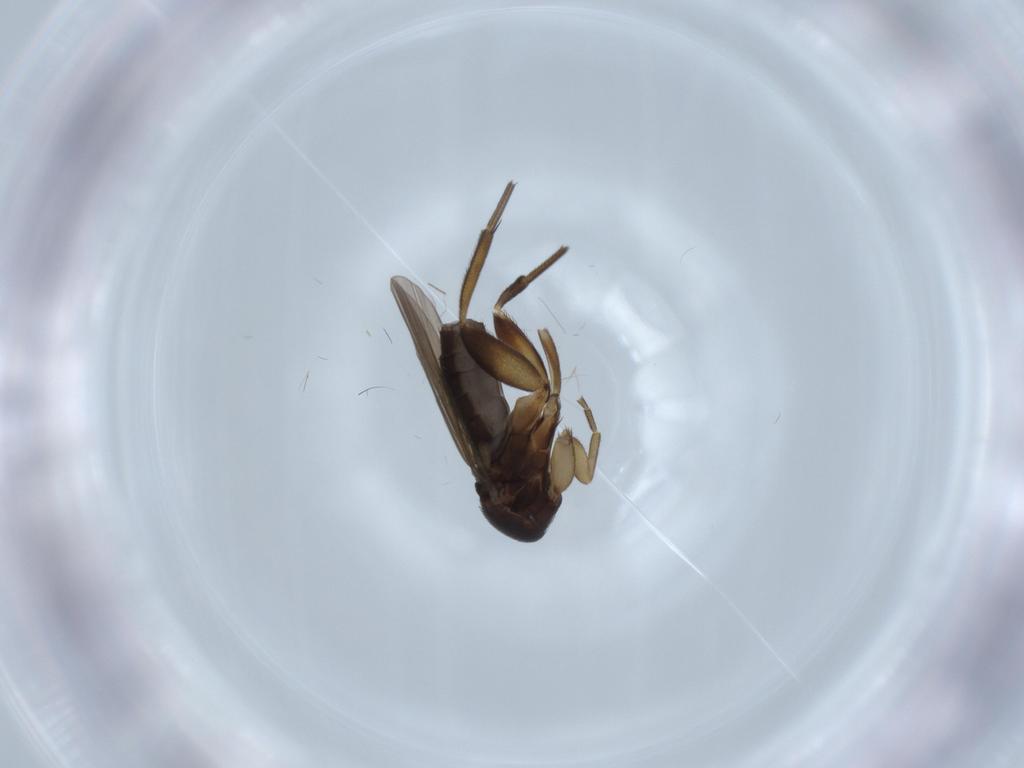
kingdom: Animalia
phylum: Arthropoda
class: Insecta
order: Diptera
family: Phoridae
